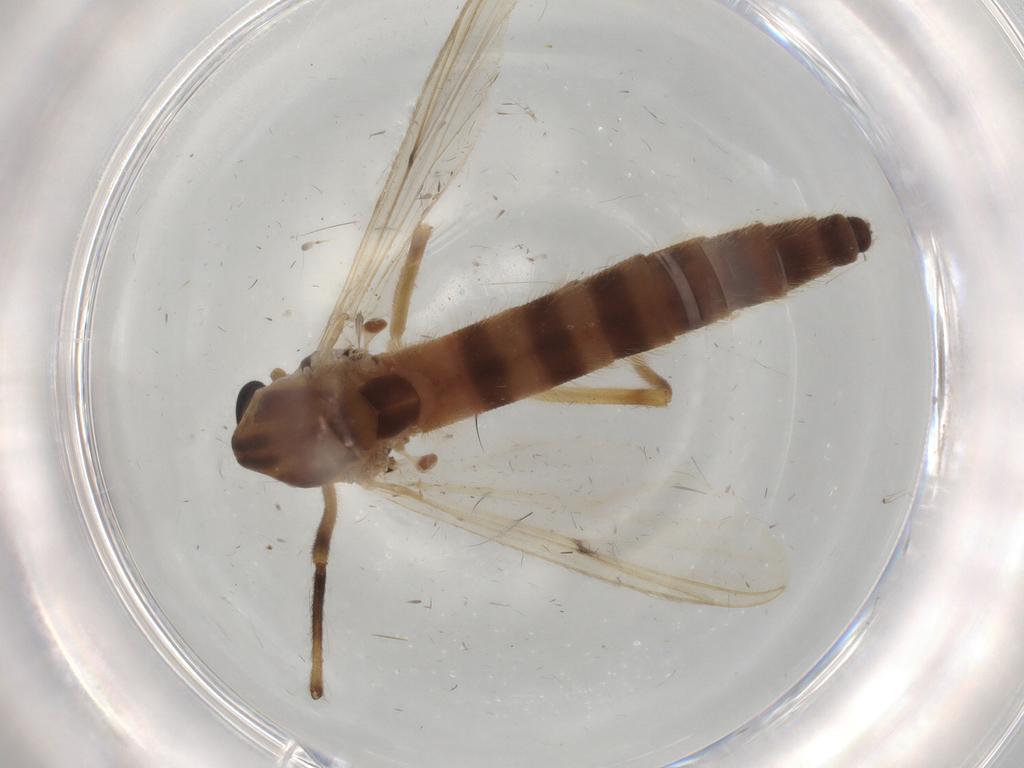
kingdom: Animalia
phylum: Arthropoda
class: Insecta
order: Diptera
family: Chironomidae
